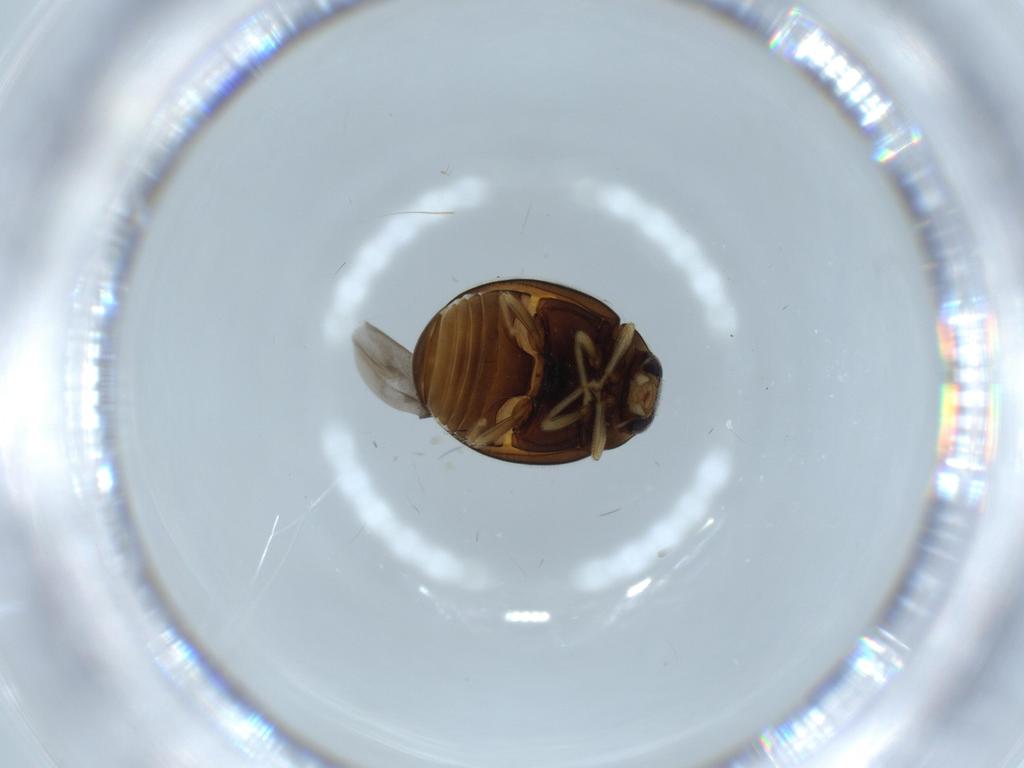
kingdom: Animalia
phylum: Arthropoda
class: Insecta
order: Coleoptera
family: Coccinellidae
